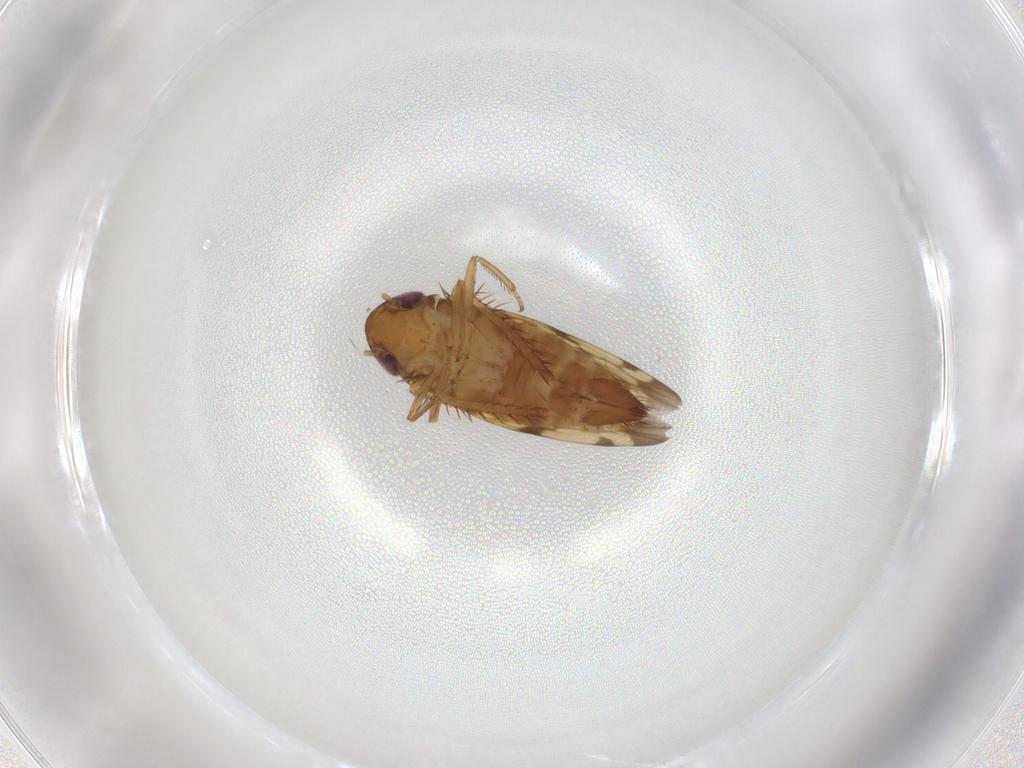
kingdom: Animalia
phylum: Arthropoda
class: Insecta
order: Hemiptera
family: Cicadellidae
